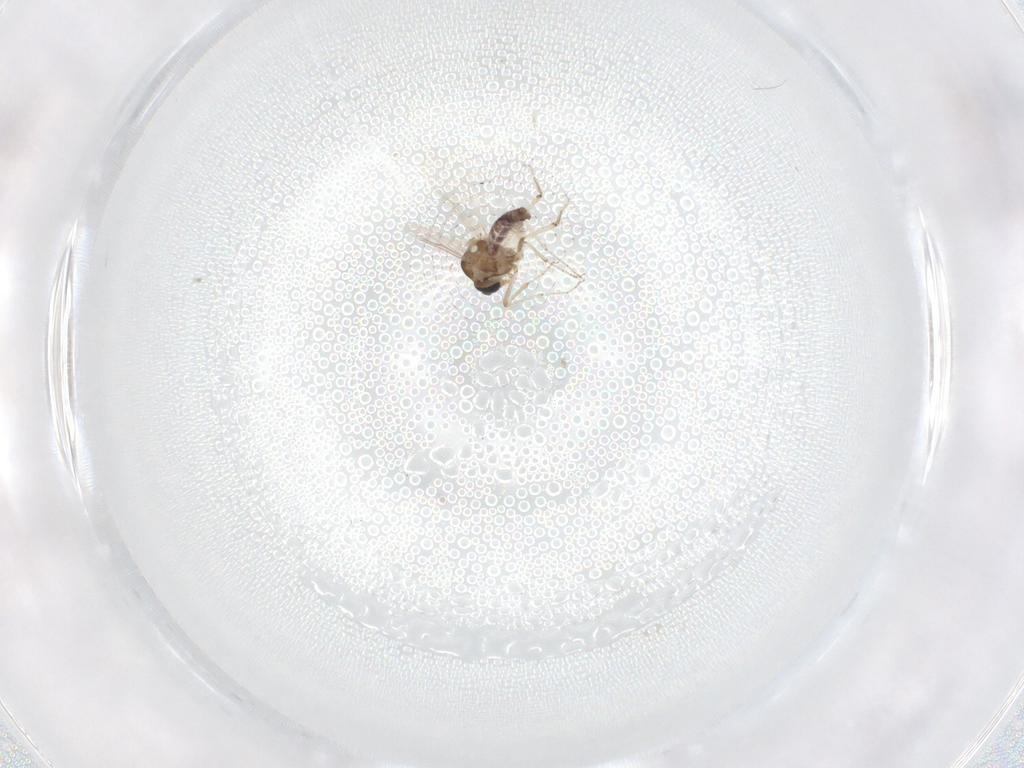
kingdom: Animalia
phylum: Arthropoda
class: Insecta
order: Diptera
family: Ceratopogonidae
